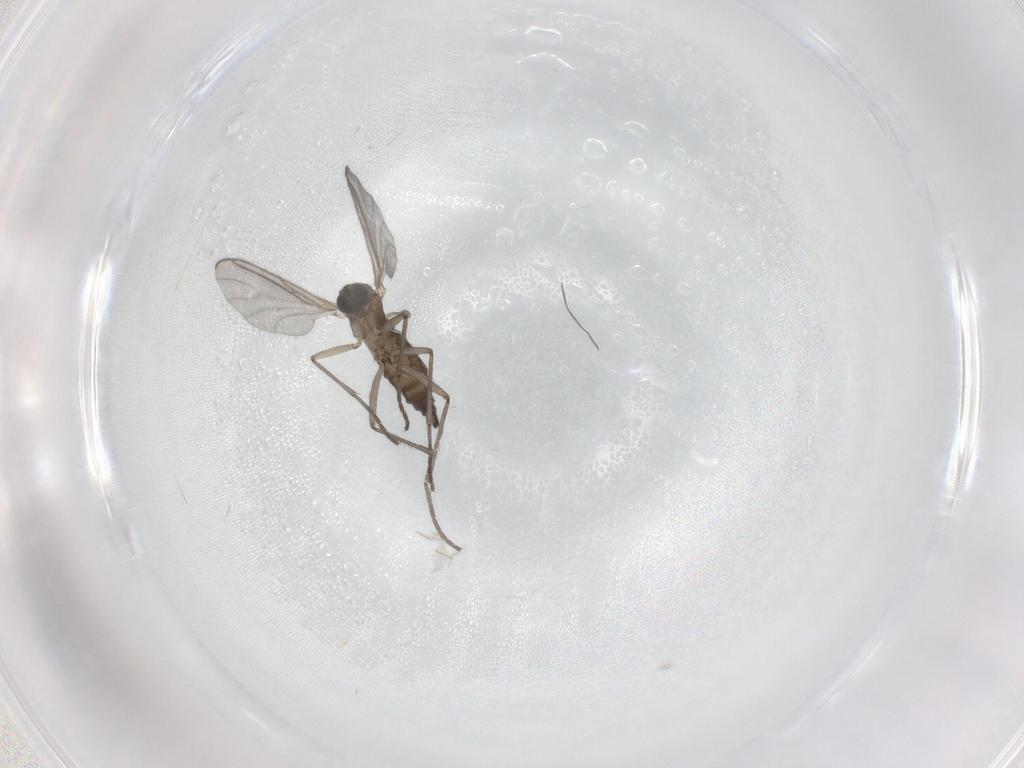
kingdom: Animalia
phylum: Arthropoda
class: Insecta
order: Diptera
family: Sciaridae
